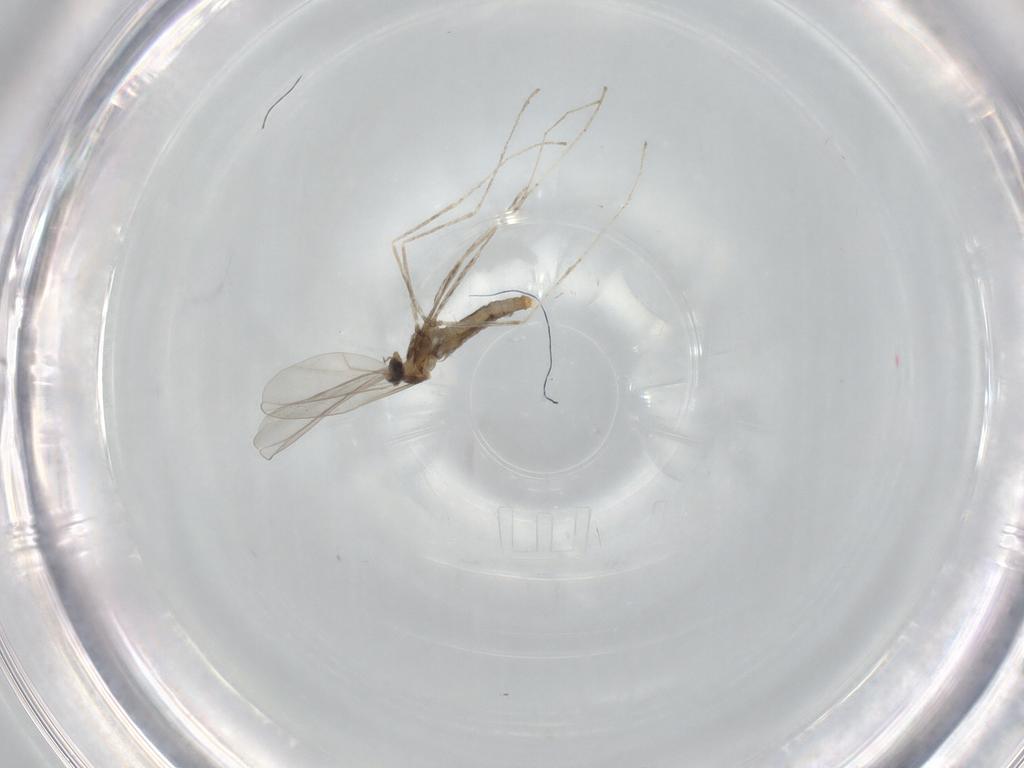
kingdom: Animalia
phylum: Arthropoda
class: Insecta
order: Diptera
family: Cecidomyiidae
